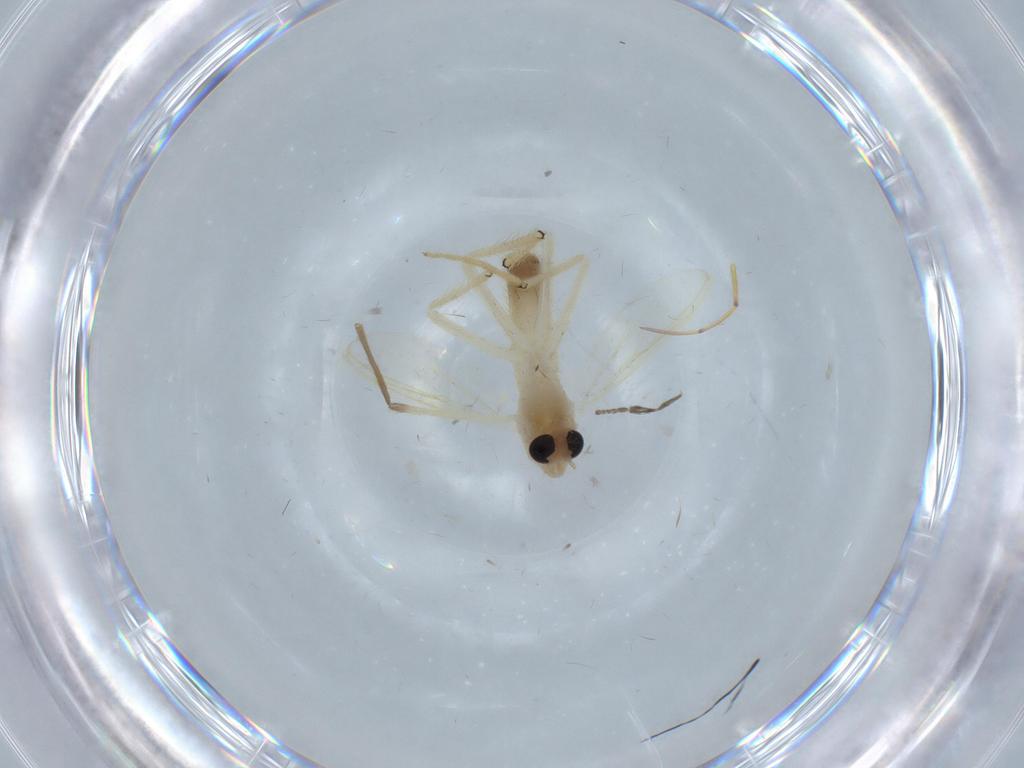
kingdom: Animalia
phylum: Arthropoda
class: Insecta
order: Diptera
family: Chironomidae
